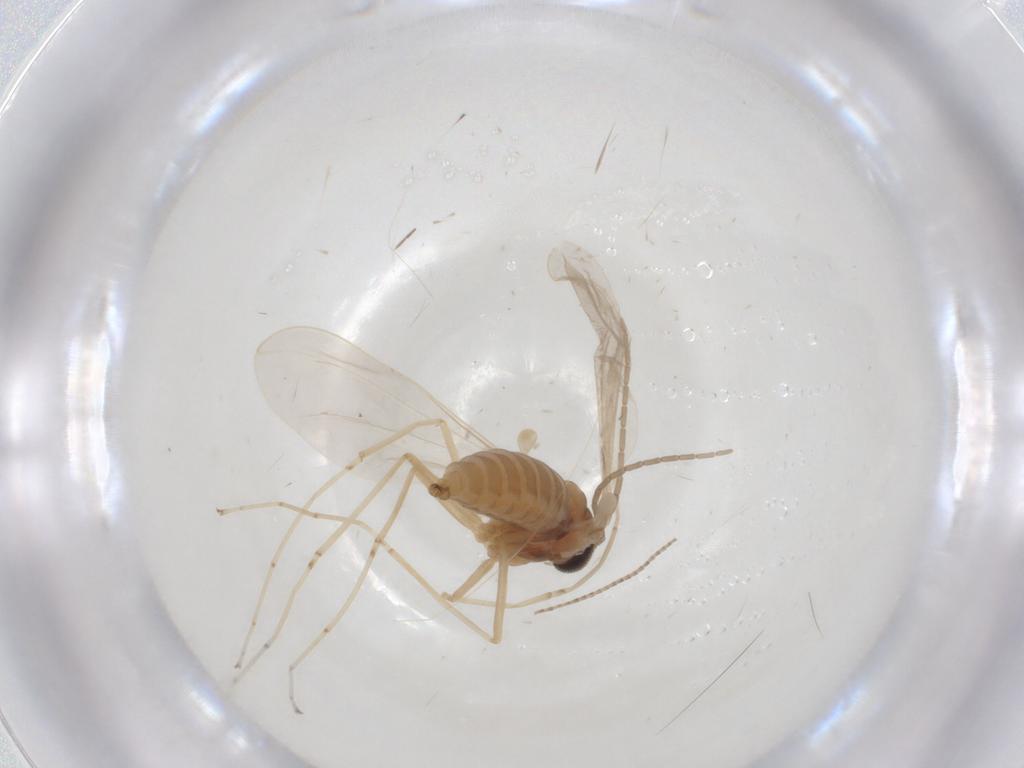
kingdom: Animalia
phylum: Arthropoda
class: Insecta
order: Diptera
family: Cecidomyiidae
